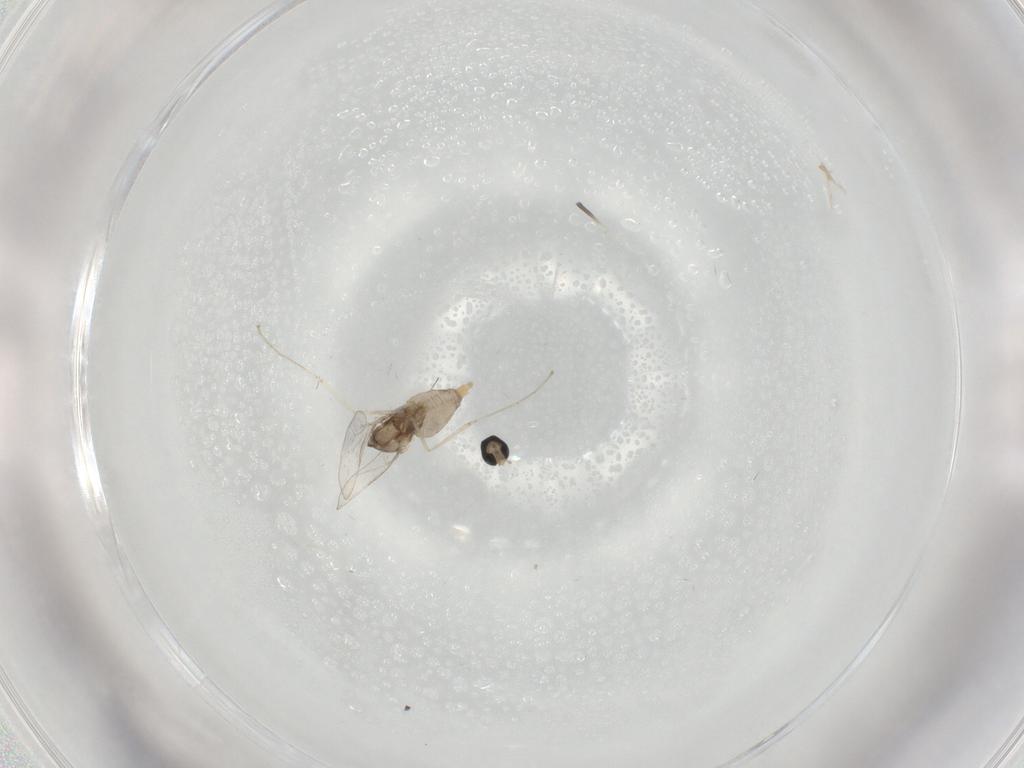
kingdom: Animalia
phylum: Arthropoda
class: Insecta
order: Diptera
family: Cecidomyiidae
